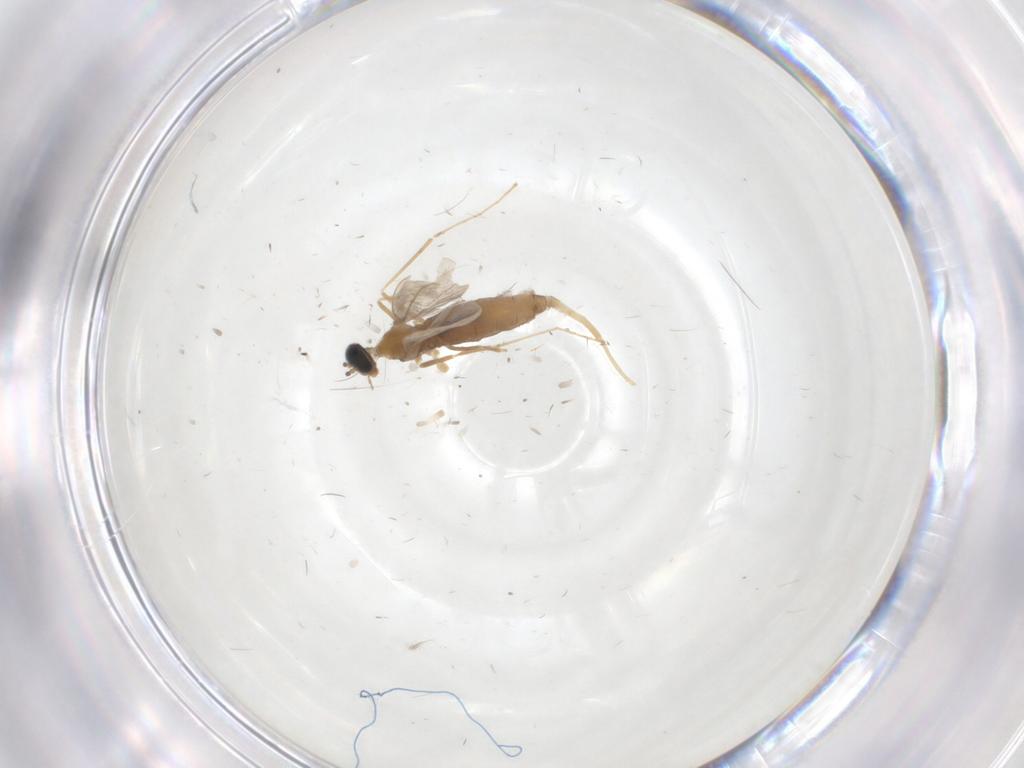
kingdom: Animalia
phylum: Arthropoda
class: Insecta
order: Diptera
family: Cecidomyiidae
